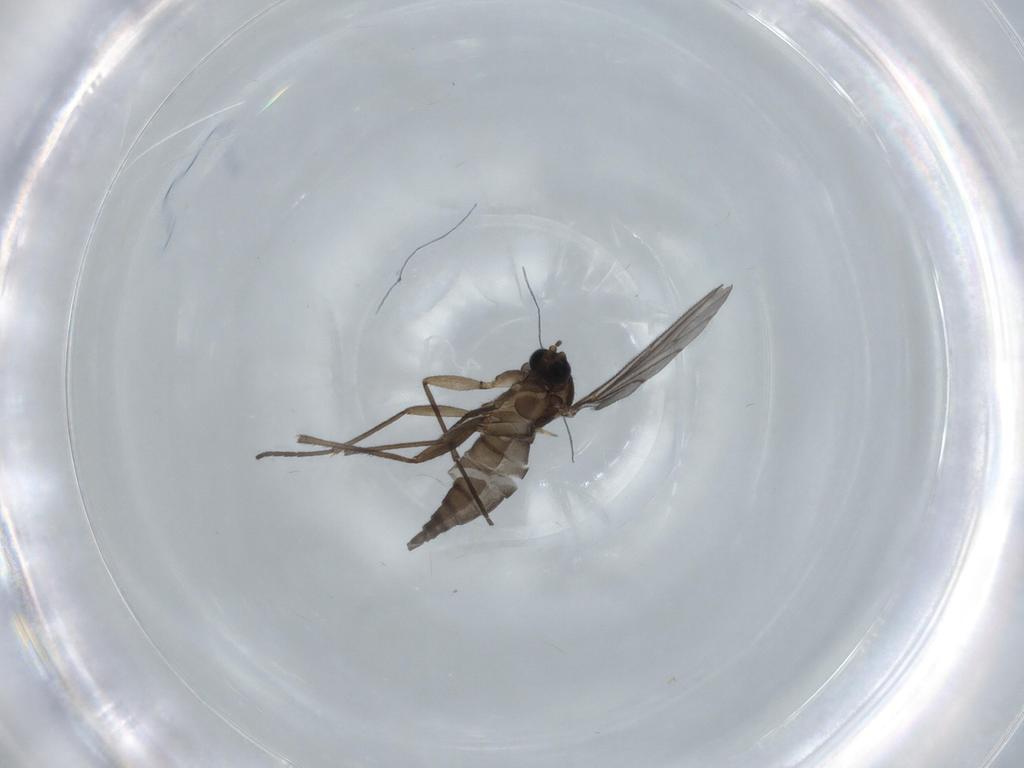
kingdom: Animalia
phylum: Arthropoda
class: Insecta
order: Diptera
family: Sciaridae
